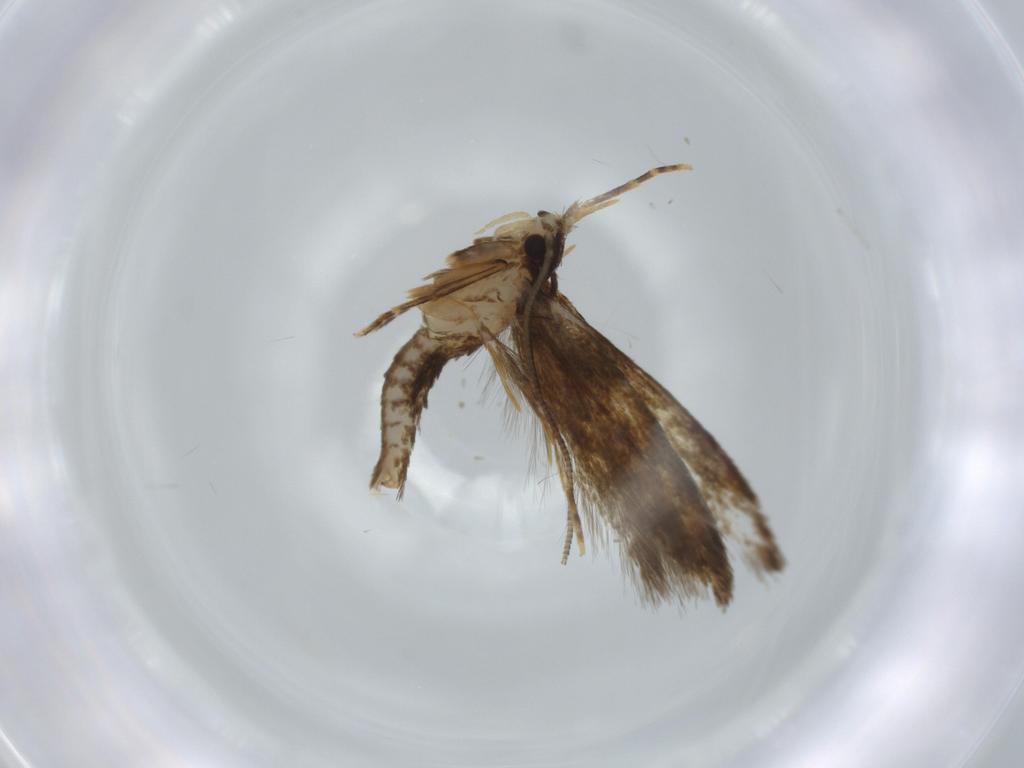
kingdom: Animalia
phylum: Arthropoda
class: Insecta
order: Lepidoptera
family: Tineidae
